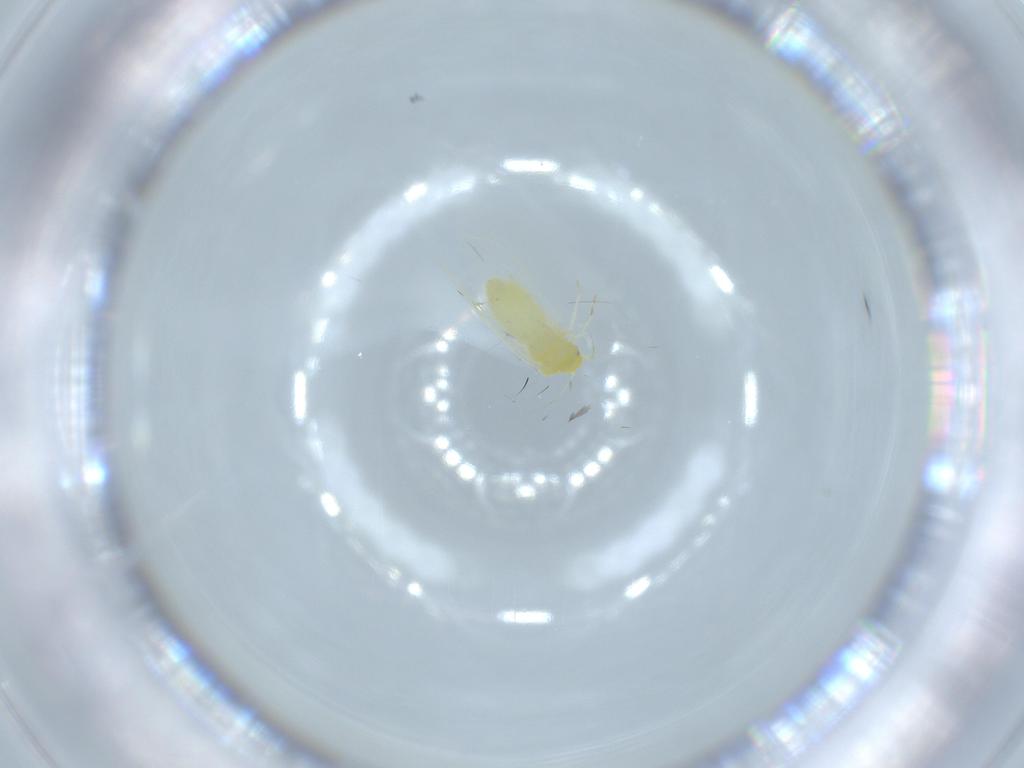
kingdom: Animalia
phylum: Arthropoda
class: Insecta
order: Hemiptera
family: Aleyrodidae
